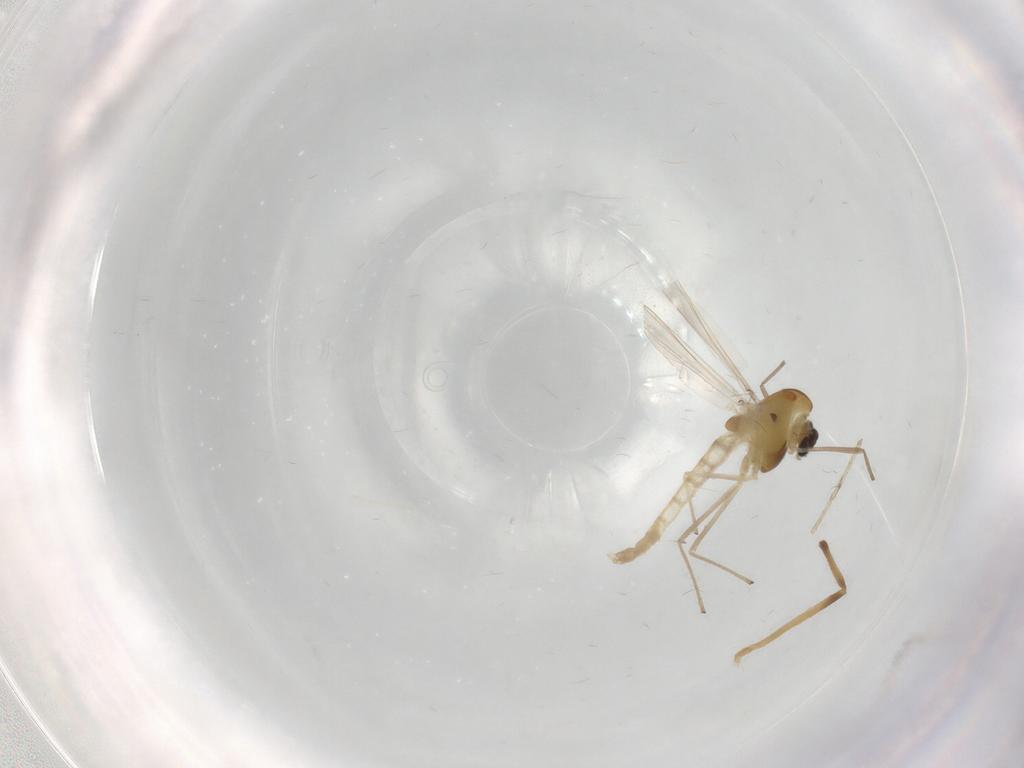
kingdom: Animalia
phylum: Arthropoda
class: Insecta
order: Diptera
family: Chironomidae
